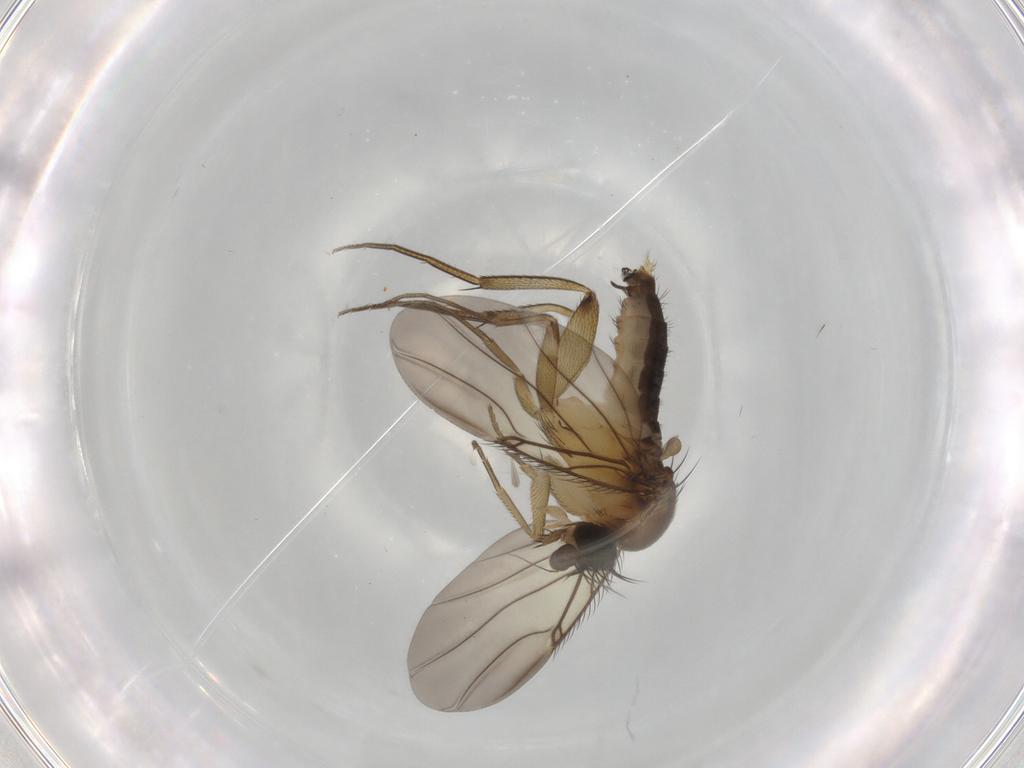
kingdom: Animalia
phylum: Arthropoda
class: Insecta
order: Diptera
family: Phoridae
